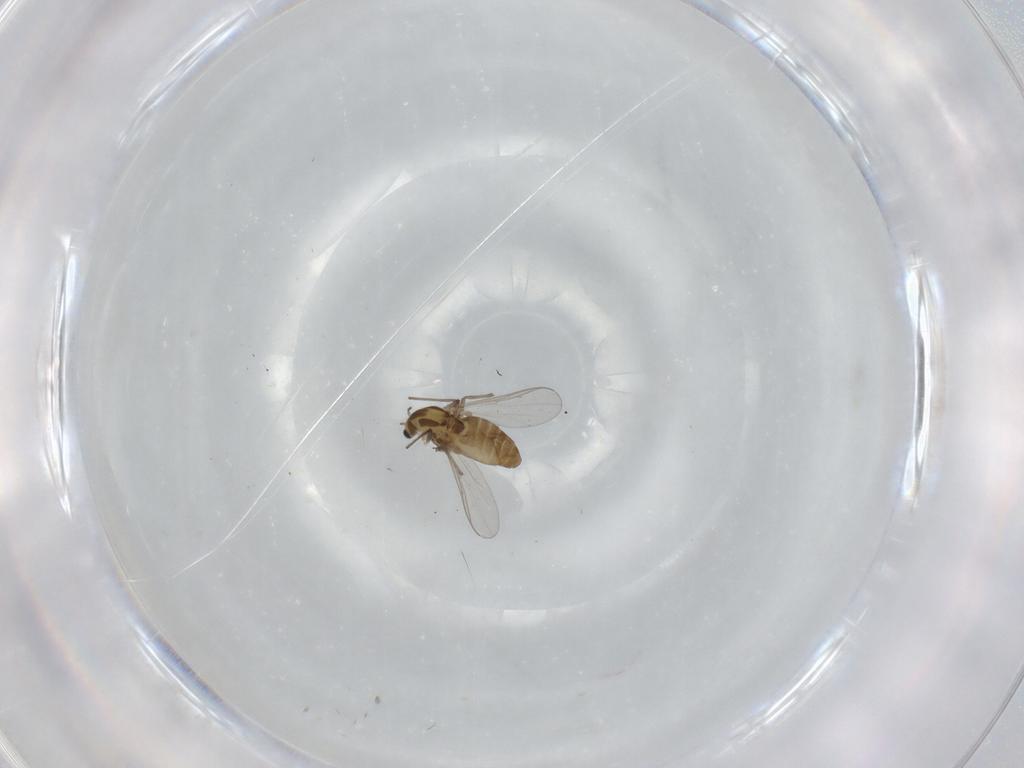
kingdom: Animalia
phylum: Arthropoda
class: Insecta
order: Diptera
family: Chironomidae
